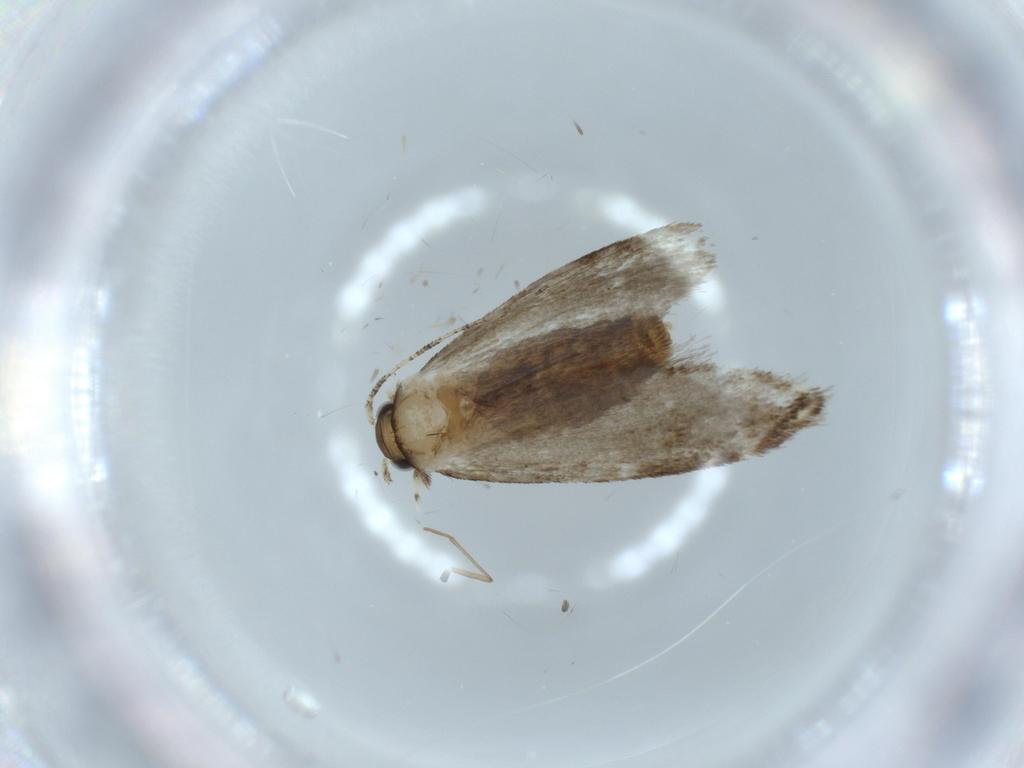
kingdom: Animalia
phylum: Arthropoda
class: Insecta
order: Lepidoptera
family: Tineidae
